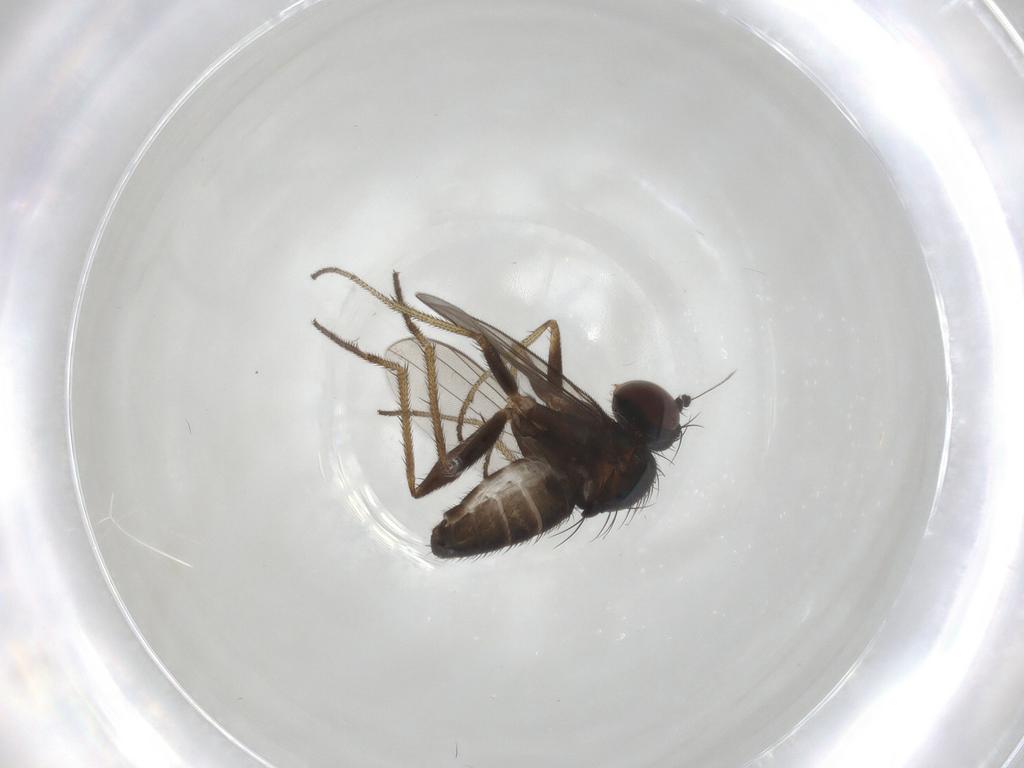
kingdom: Animalia
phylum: Arthropoda
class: Insecta
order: Diptera
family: Dolichopodidae
